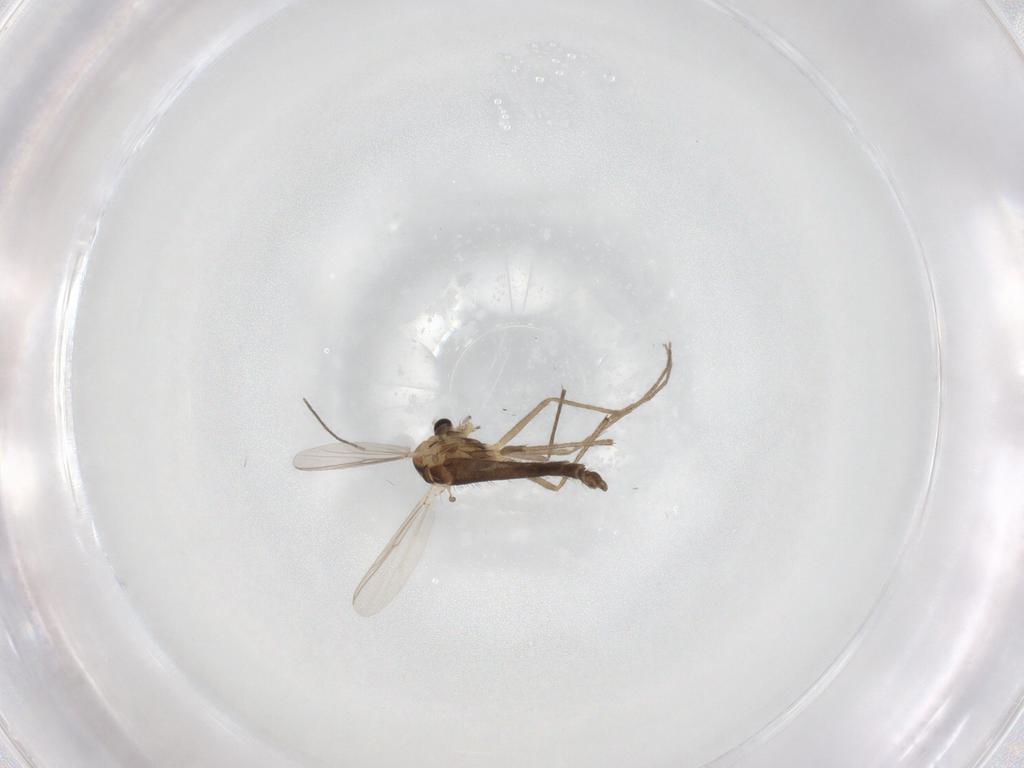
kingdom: Animalia
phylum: Arthropoda
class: Insecta
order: Diptera
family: Chironomidae
